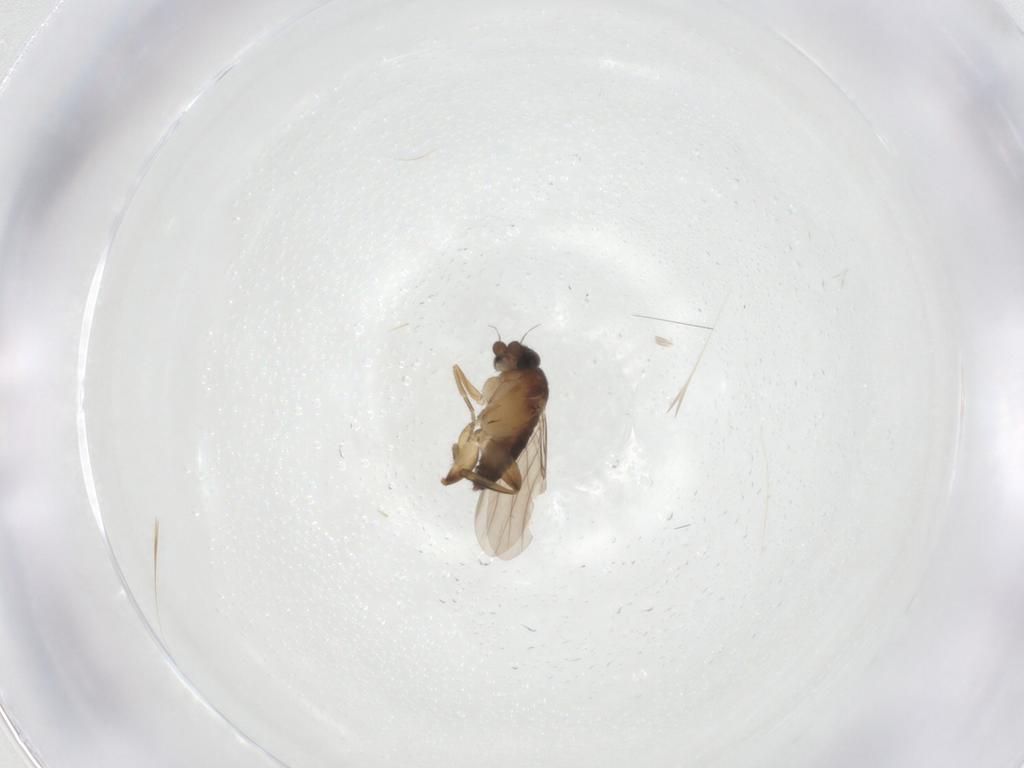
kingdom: Animalia
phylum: Arthropoda
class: Insecta
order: Diptera
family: Phoridae
